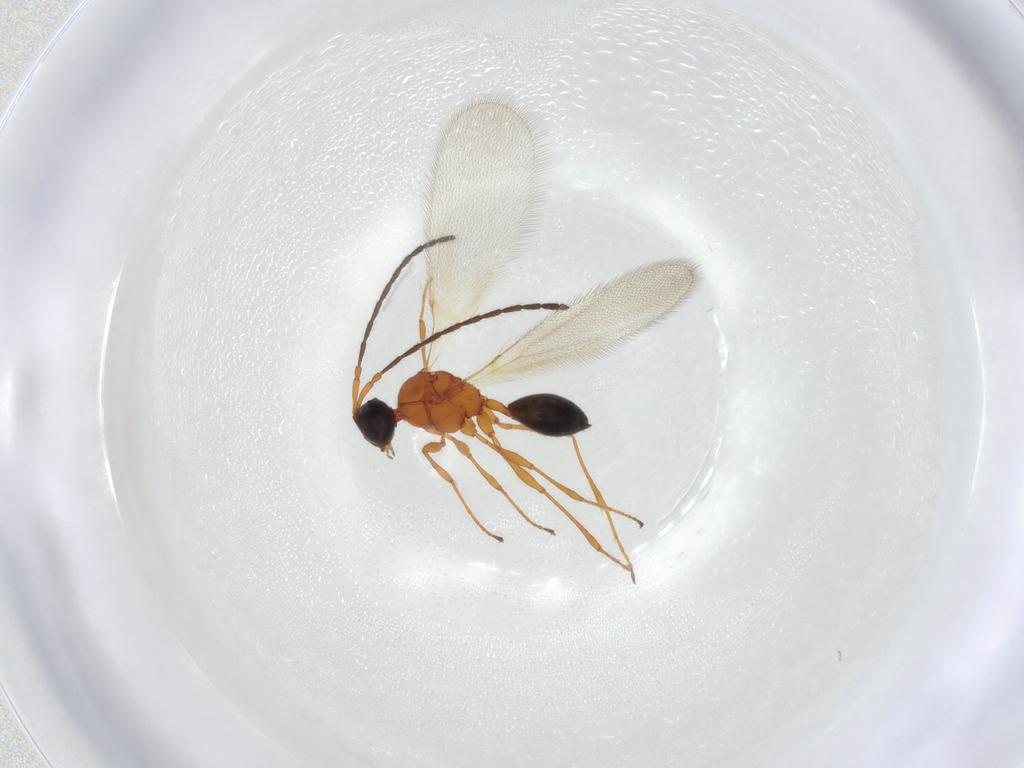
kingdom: Animalia
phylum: Arthropoda
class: Insecta
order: Hymenoptera
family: Diapriidae
